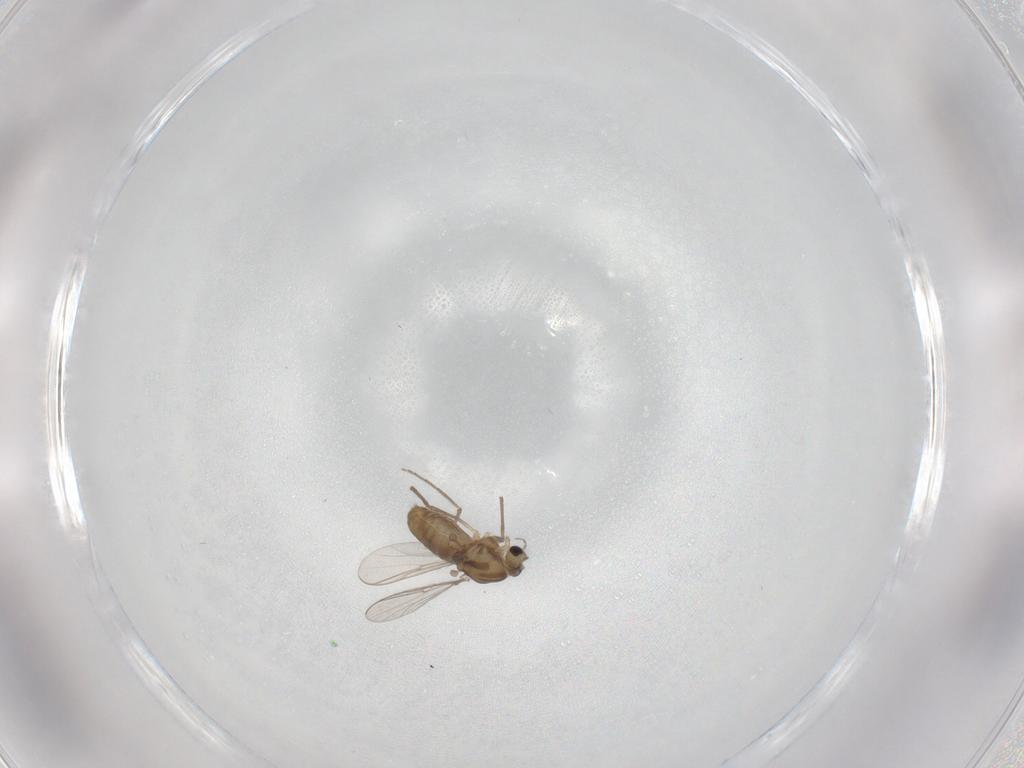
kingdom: Animalia
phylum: Arthropoda
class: Insecta
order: Diptera
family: Chironomidae
